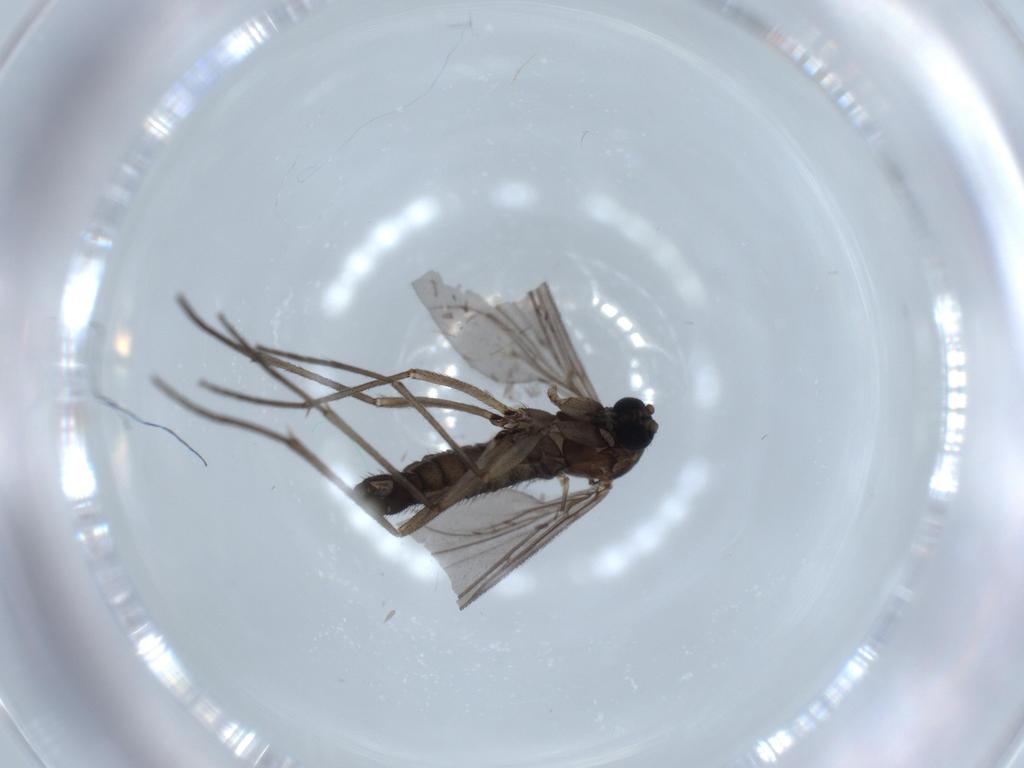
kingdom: Animalia
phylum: Arthropoda
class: Insecta
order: Diptera
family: Sciaridae
